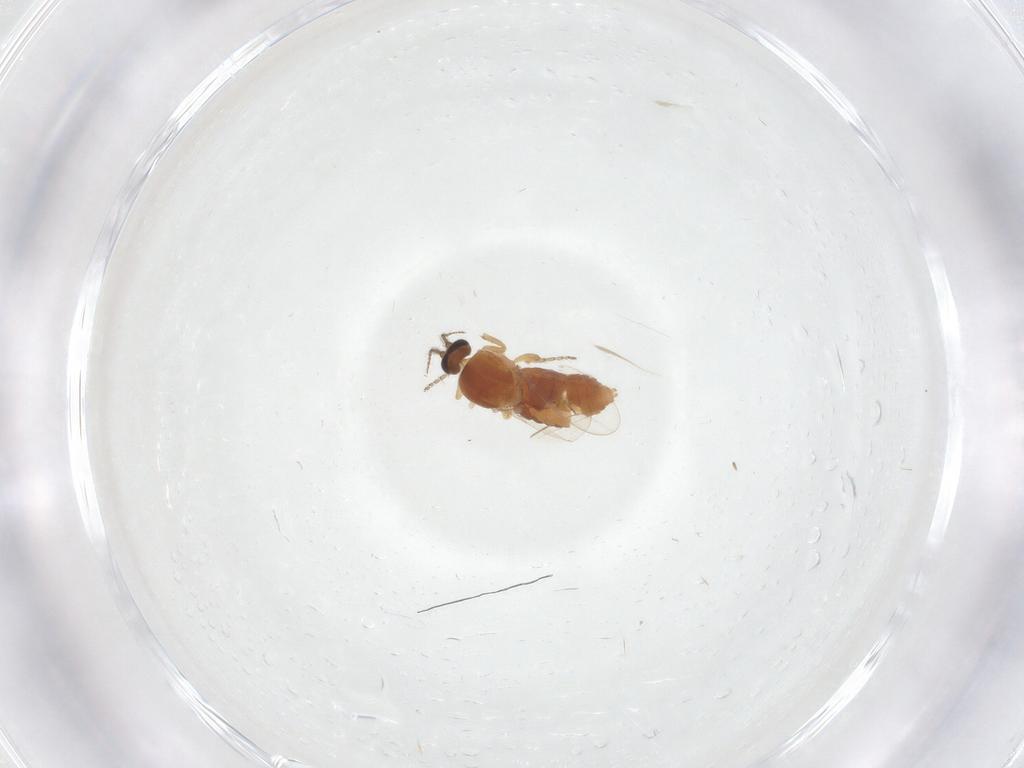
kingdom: Animalia
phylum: Arthropoda
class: Insecta
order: Diptera
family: Ceratopogonidae
